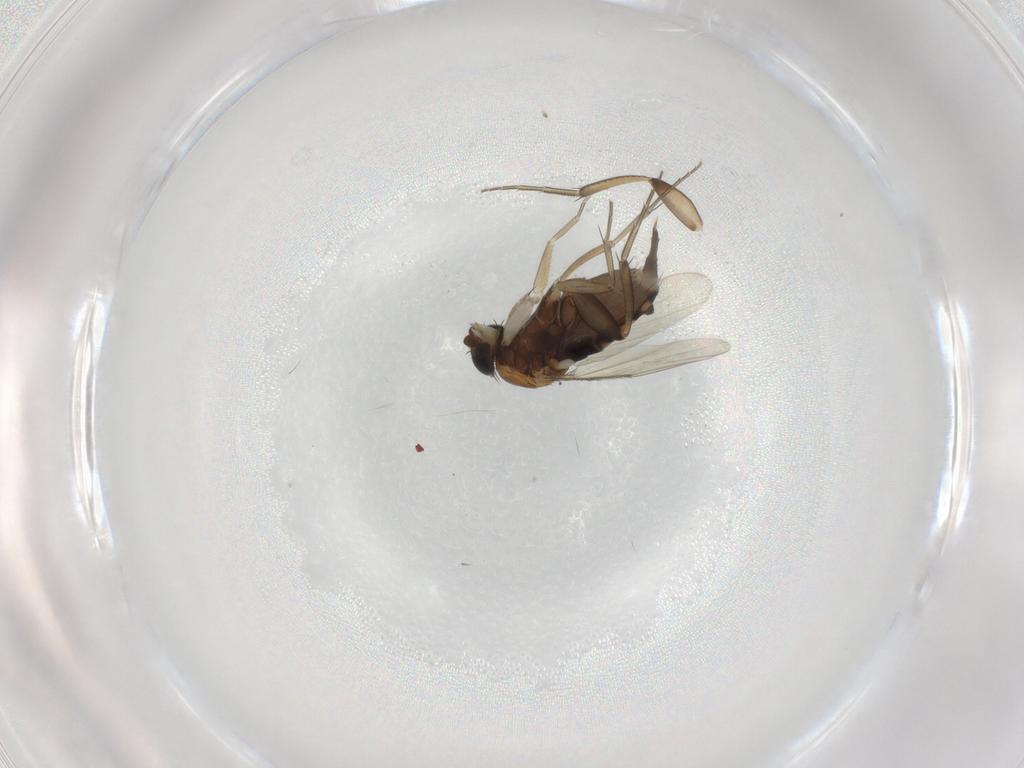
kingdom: Animalia
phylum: Arthropoda
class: Insecta
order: Diptera
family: Phoridae
